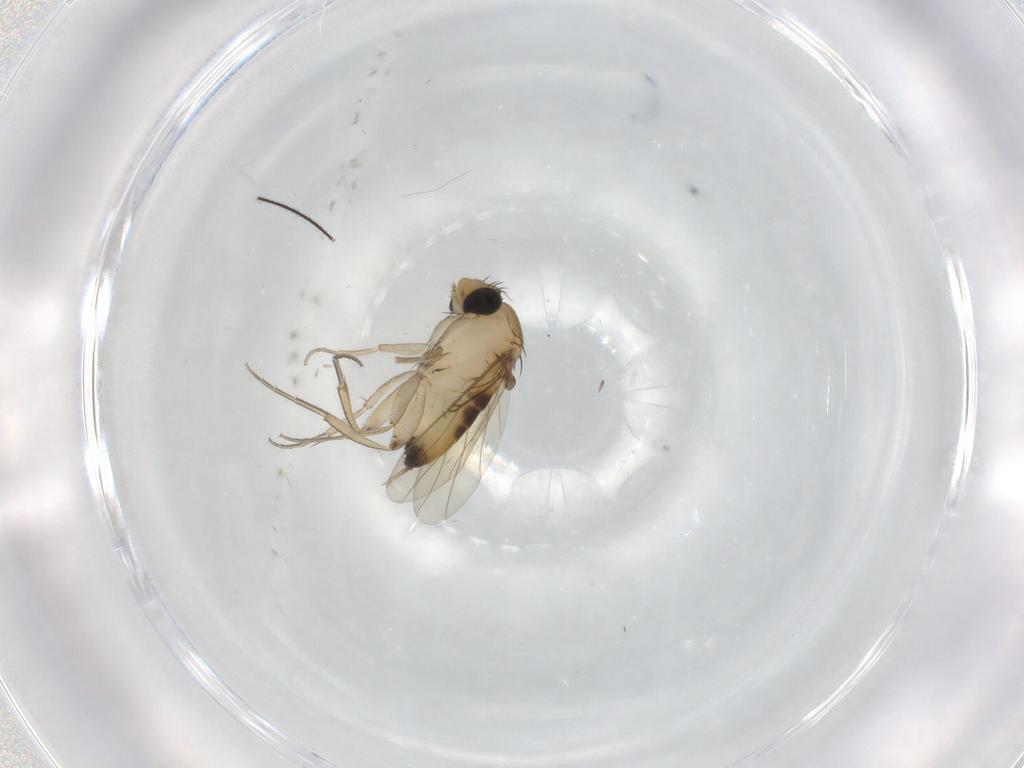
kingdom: Animalia
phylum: Arthropoda
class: Insecta
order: Diptera
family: Phoridae
